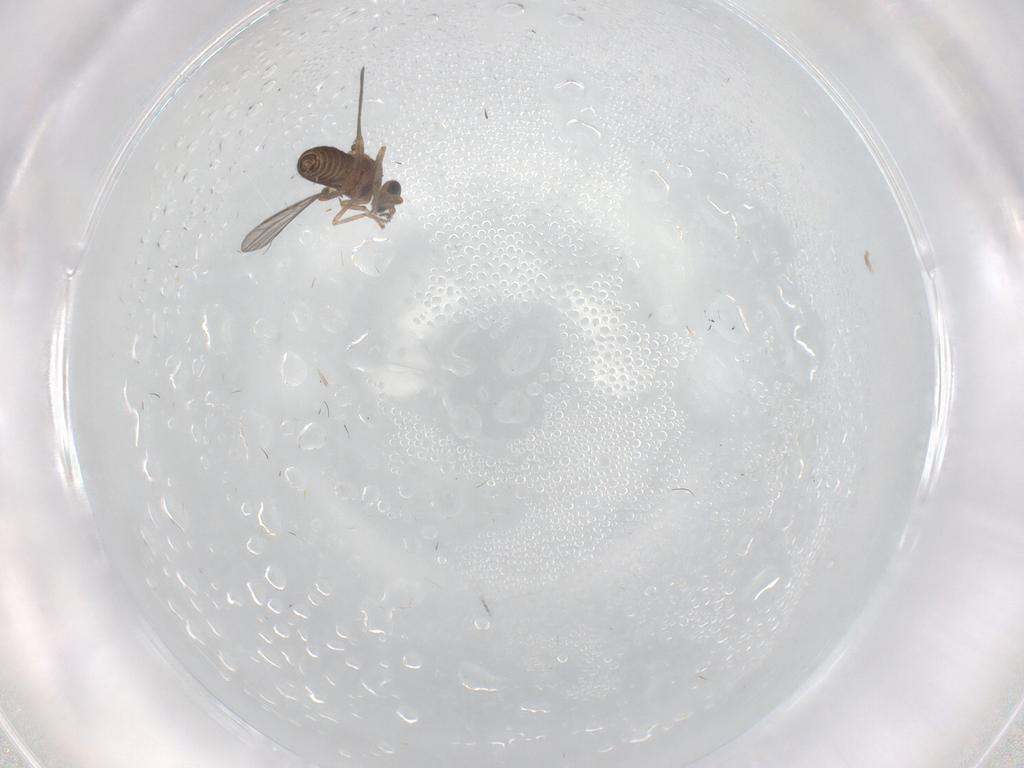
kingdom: Animalia
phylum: Arthropoda
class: Insecta
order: Diptera
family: Ceratopogonidae
